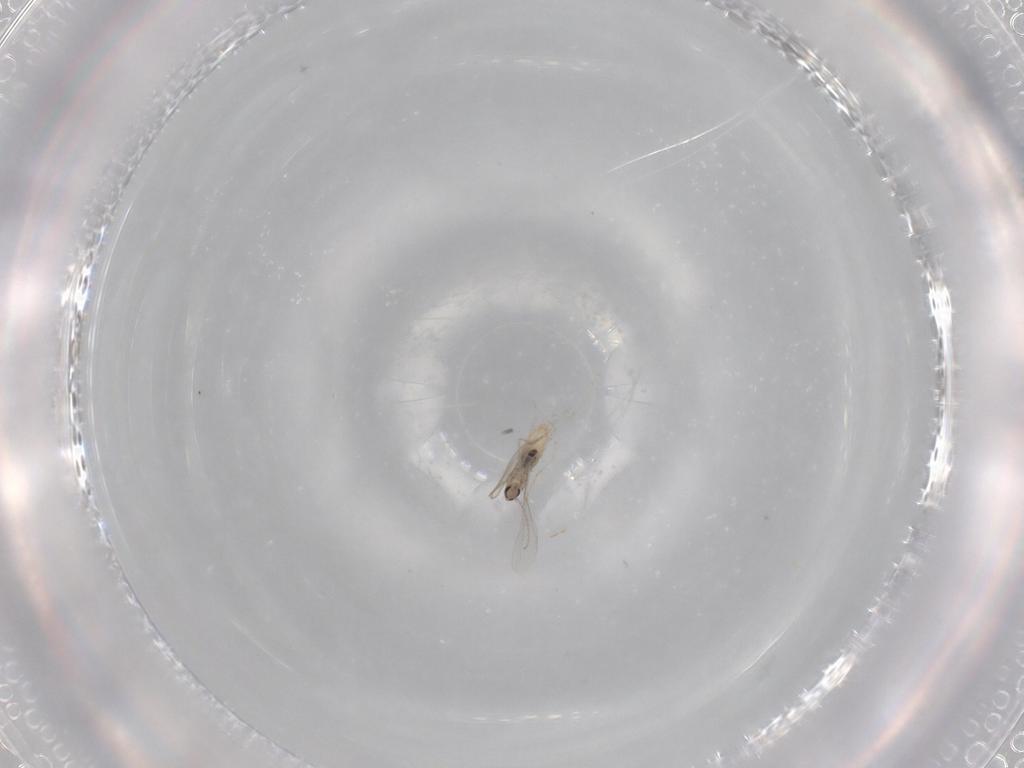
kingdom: Animalia
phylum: Arthropoda
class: Insecta
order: Diptera
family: Cecidomyiidae
